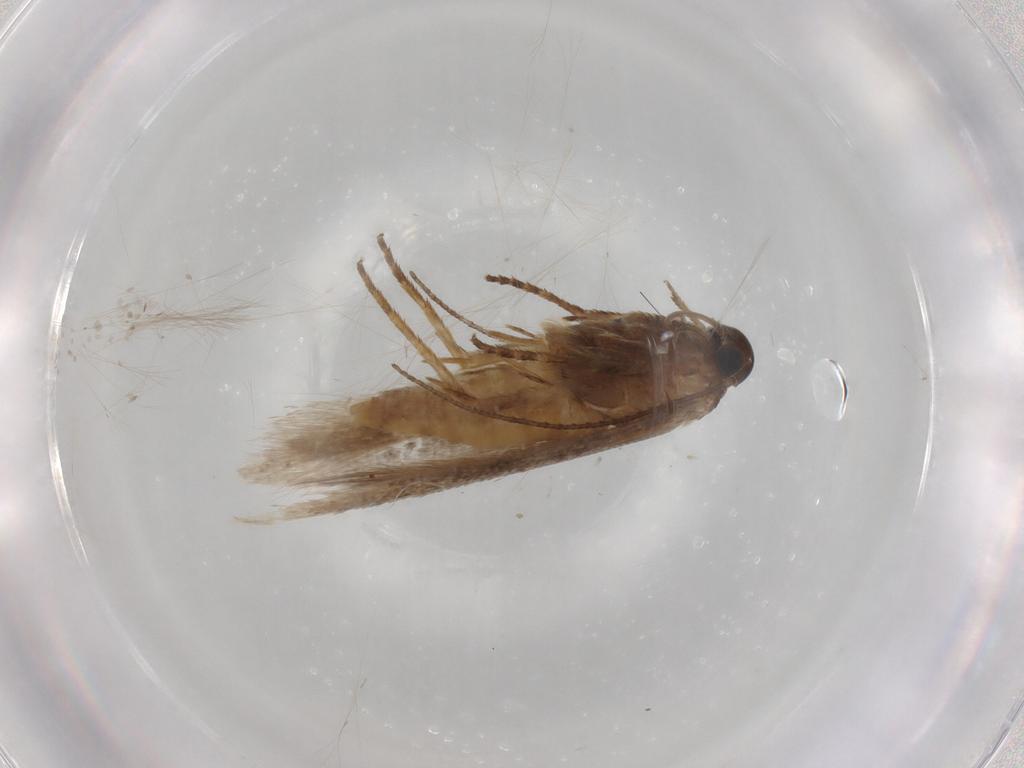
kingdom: Animalia
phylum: Arthropoda
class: Insecta
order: Lepidoptera
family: Gelechiidae
